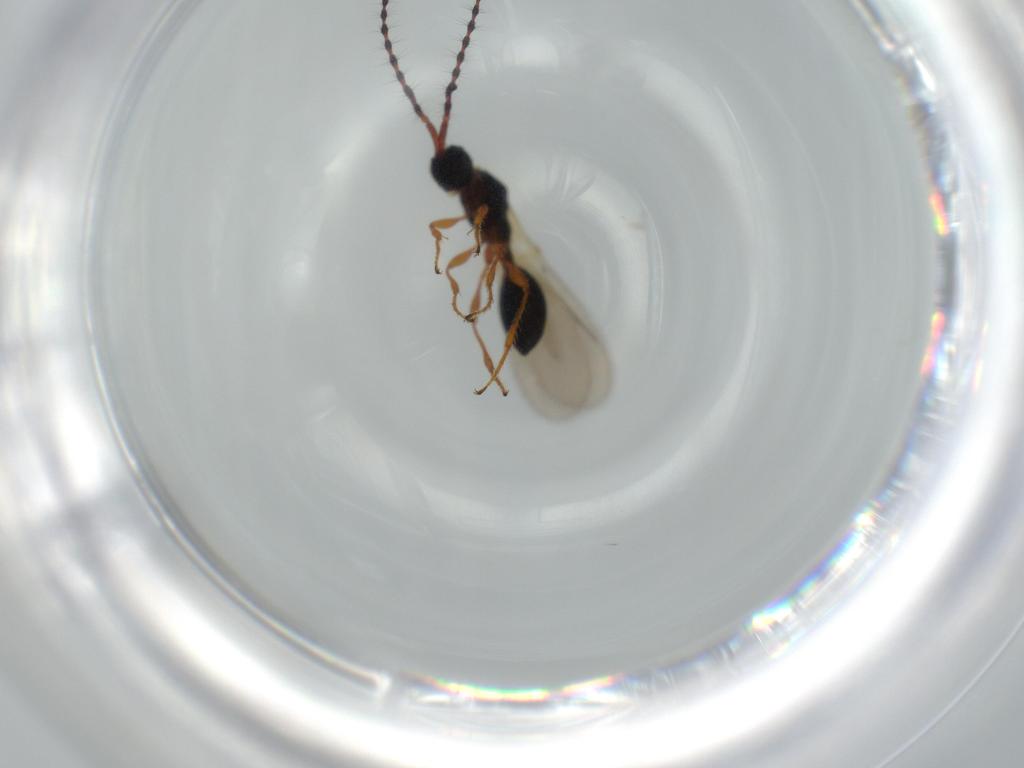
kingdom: Animalia
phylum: Arthropoda
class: Insecta
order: Hymenoptera
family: Diapriidae
